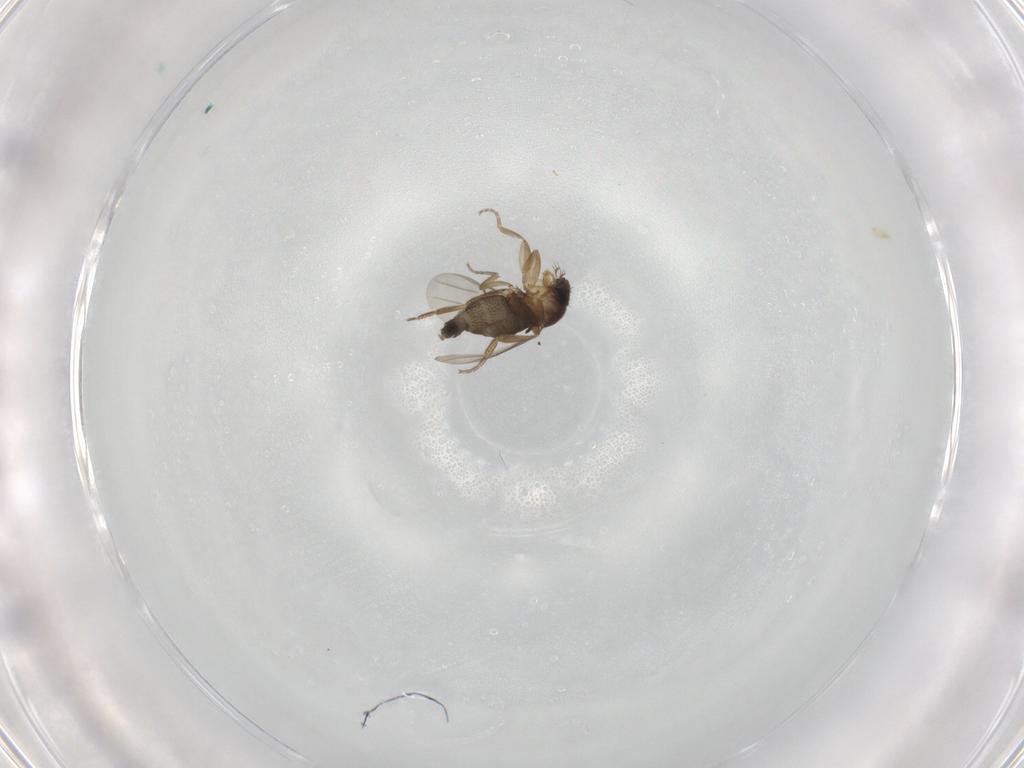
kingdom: Animalia
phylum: Arthropoda
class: Insecta
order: Diptera
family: Phoridae
